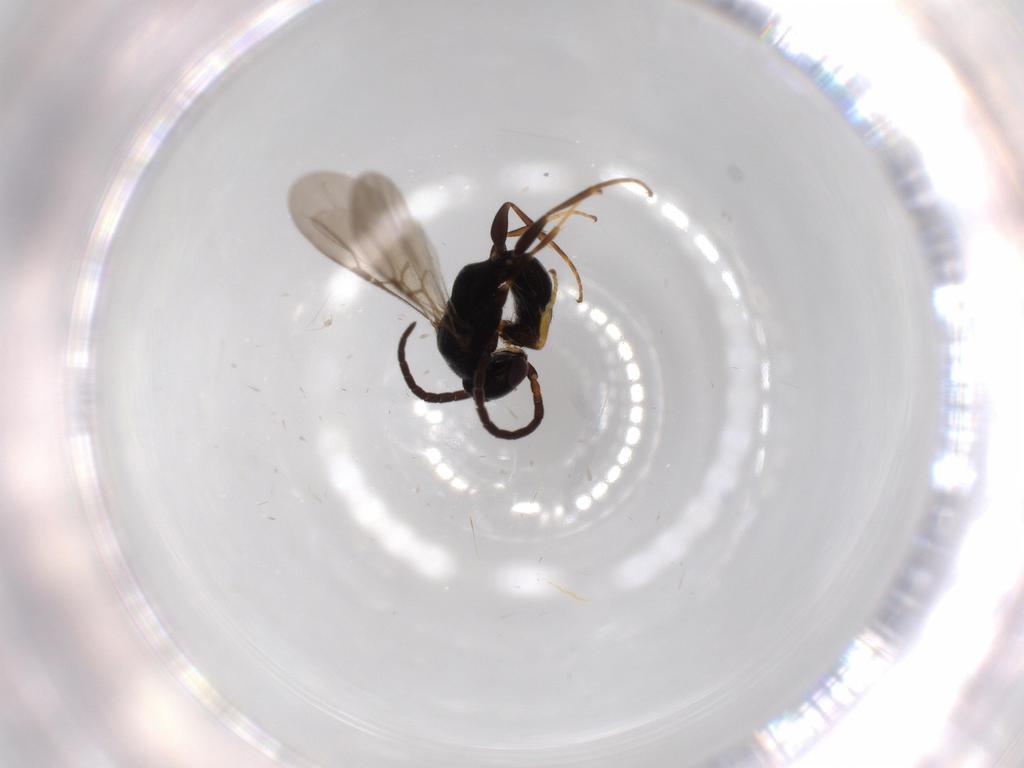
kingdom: Animalia
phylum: Arthropoda
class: Insecta
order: Hymenoptera
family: Bethylidae
